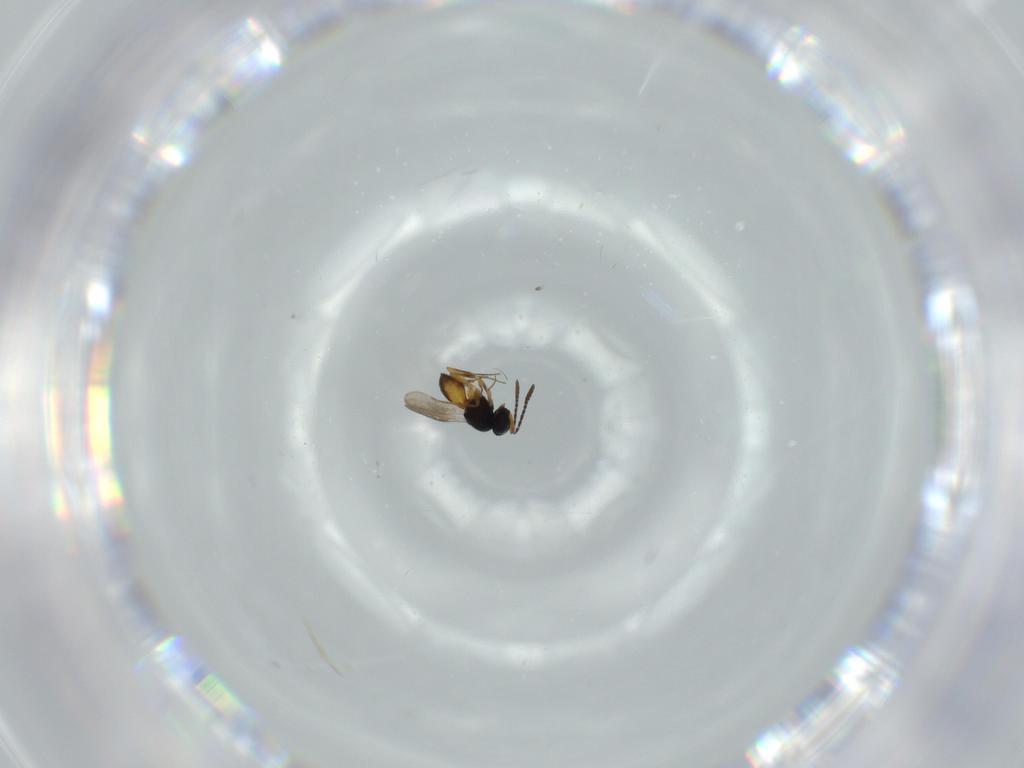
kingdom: Animalia
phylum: Arthropoda
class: Insecta
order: Hymenoptera
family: Scelionidae
